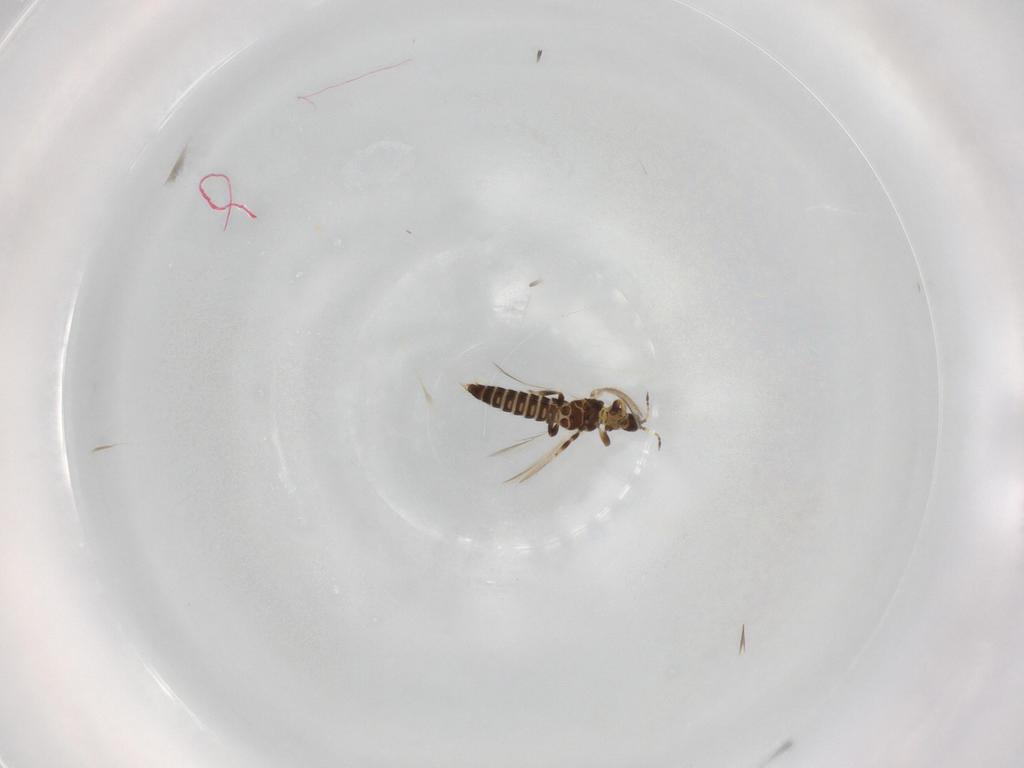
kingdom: Animalia
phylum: Arthropoda
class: Insecta
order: Thysanoptera
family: Thripidae
